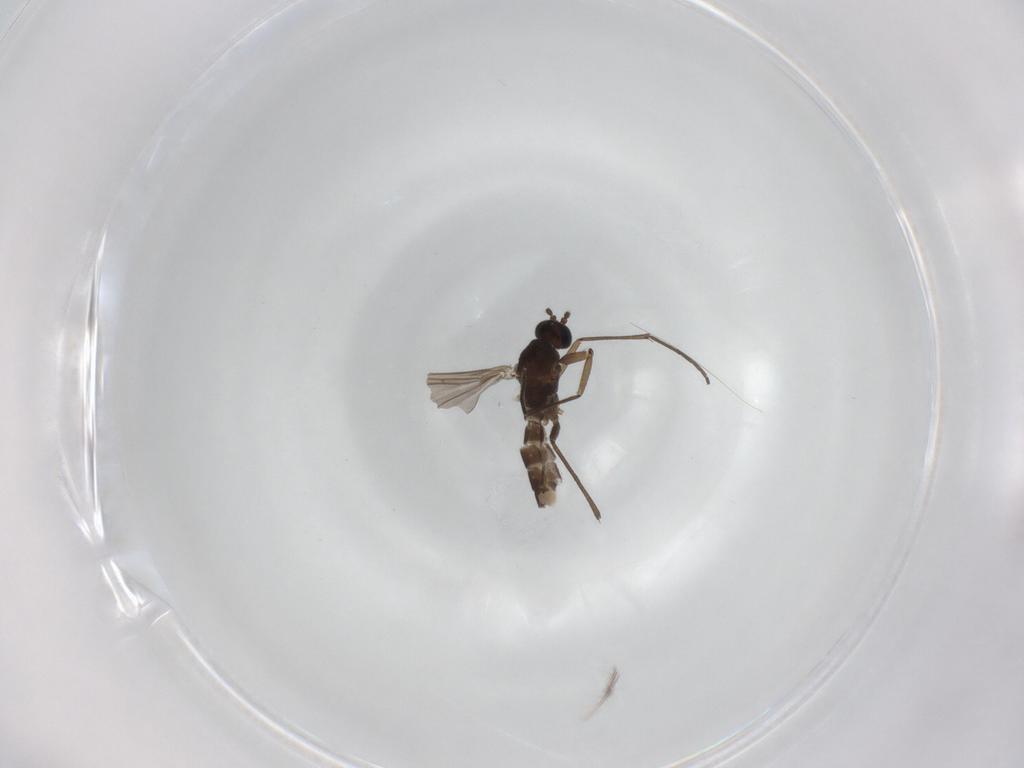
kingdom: Animalia
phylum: Arthropoda
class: Insecta
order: Diptera
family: Sciaridae
